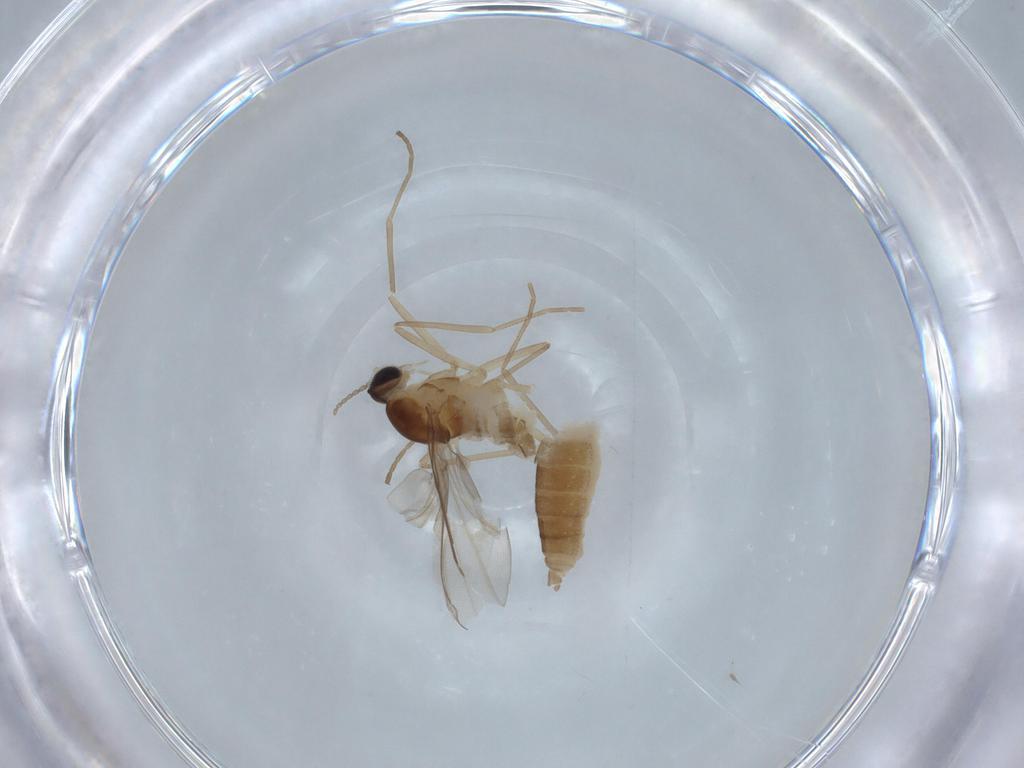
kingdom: Animalia
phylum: Arthropoda
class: Insecta
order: Diptera
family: Cecidomyiidae
